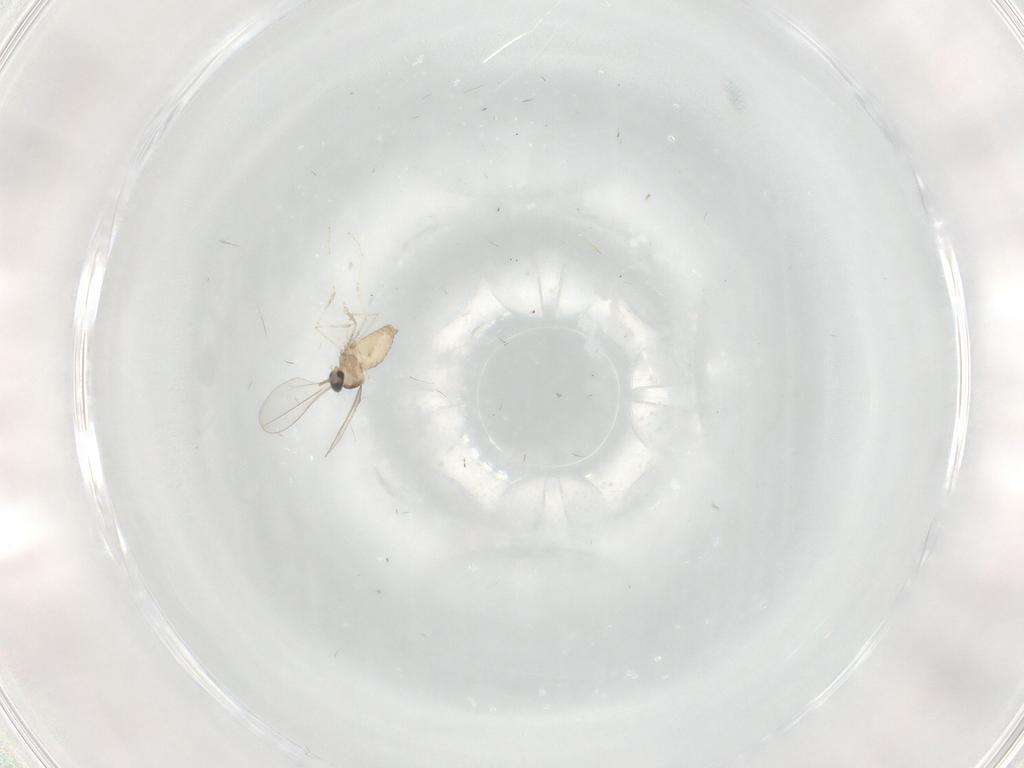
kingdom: Animalia
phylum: Arthropoda
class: Insecta
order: Diptera
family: Cecidomyiidae
